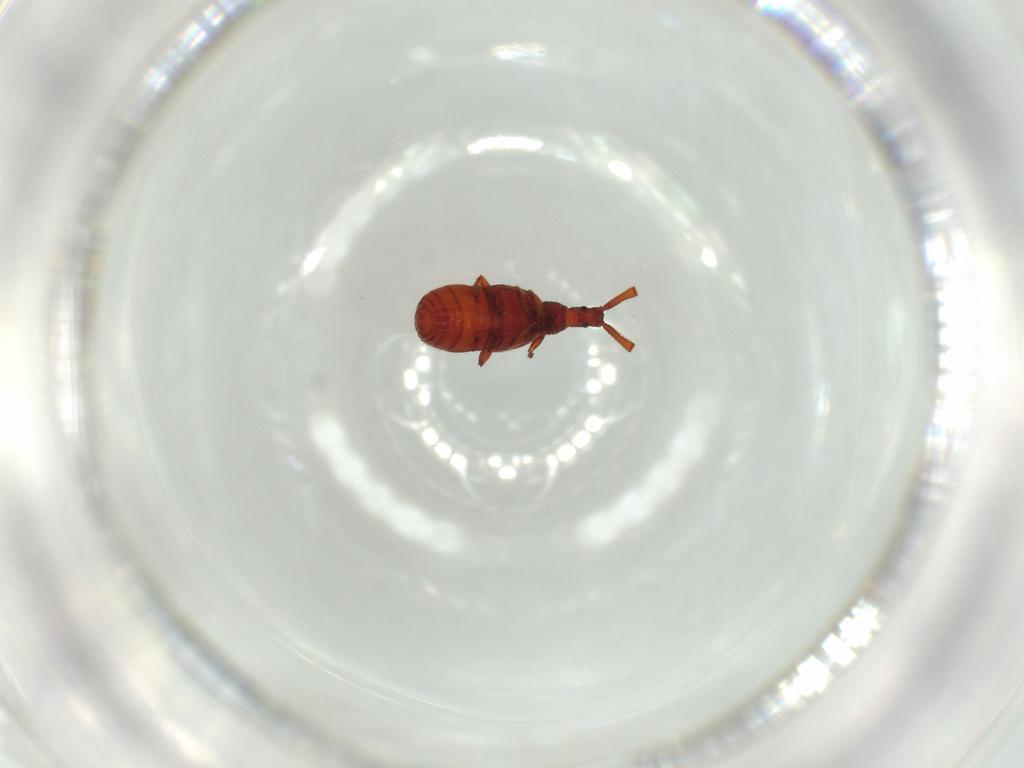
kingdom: Animalia
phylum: Arthropoda
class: Insecta
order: Coleoptera
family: Staphylinidae
